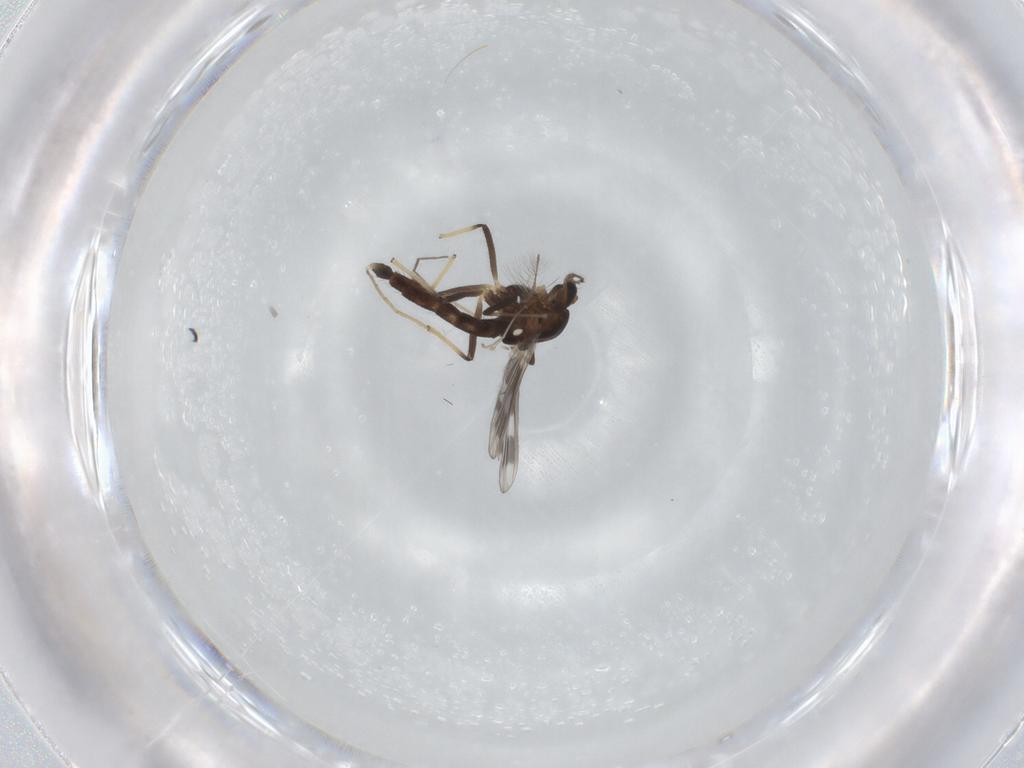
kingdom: Animalia
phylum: Arthropoda
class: Insecta
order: Diptera
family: Chironomidae
